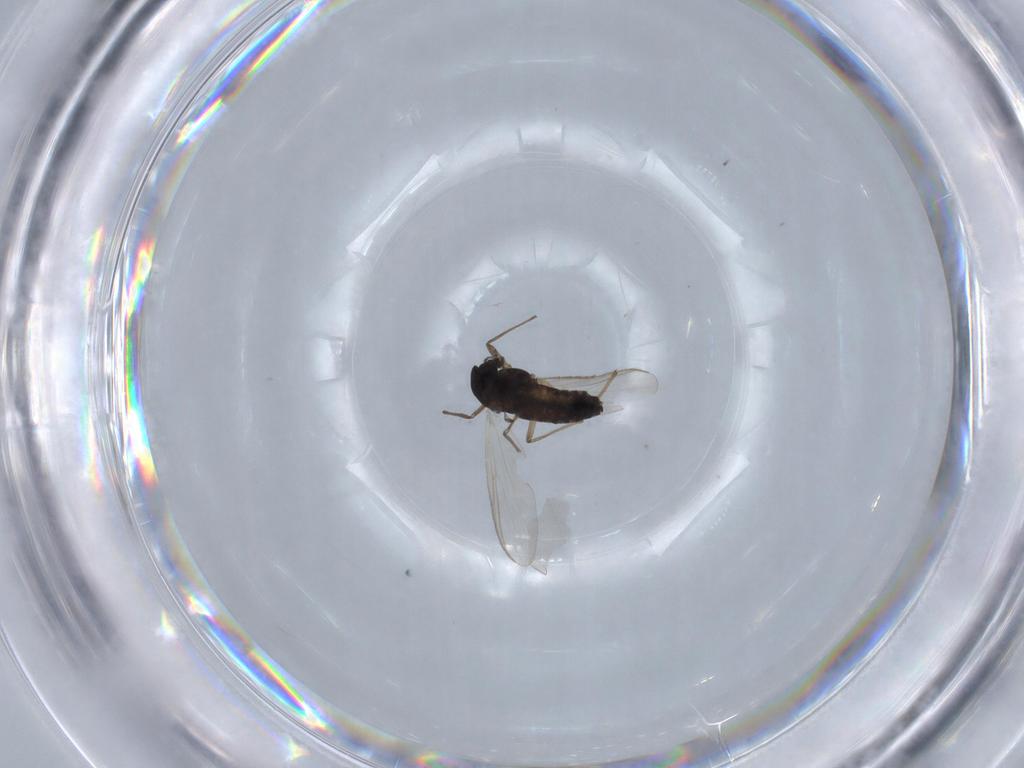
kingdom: Animalia
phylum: Arthropoda
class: Insecta
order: Diptera
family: Chironomidae
